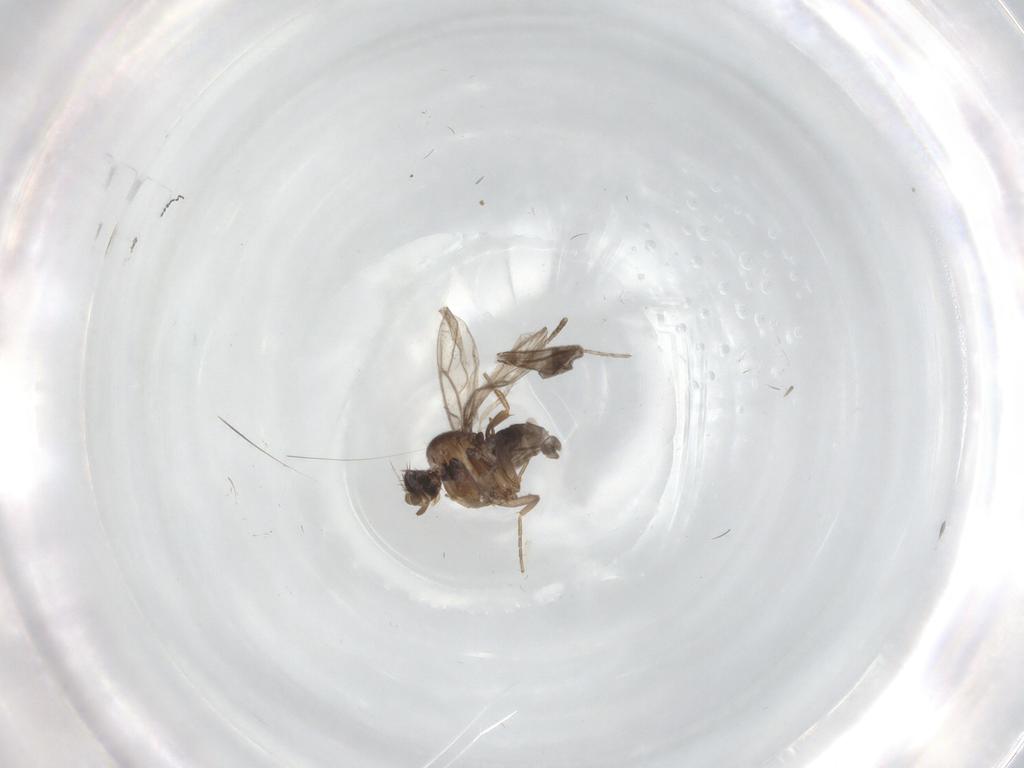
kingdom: Animalia
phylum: Arthropoda
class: Insecta
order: Diptera
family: Cecidomyiidae
